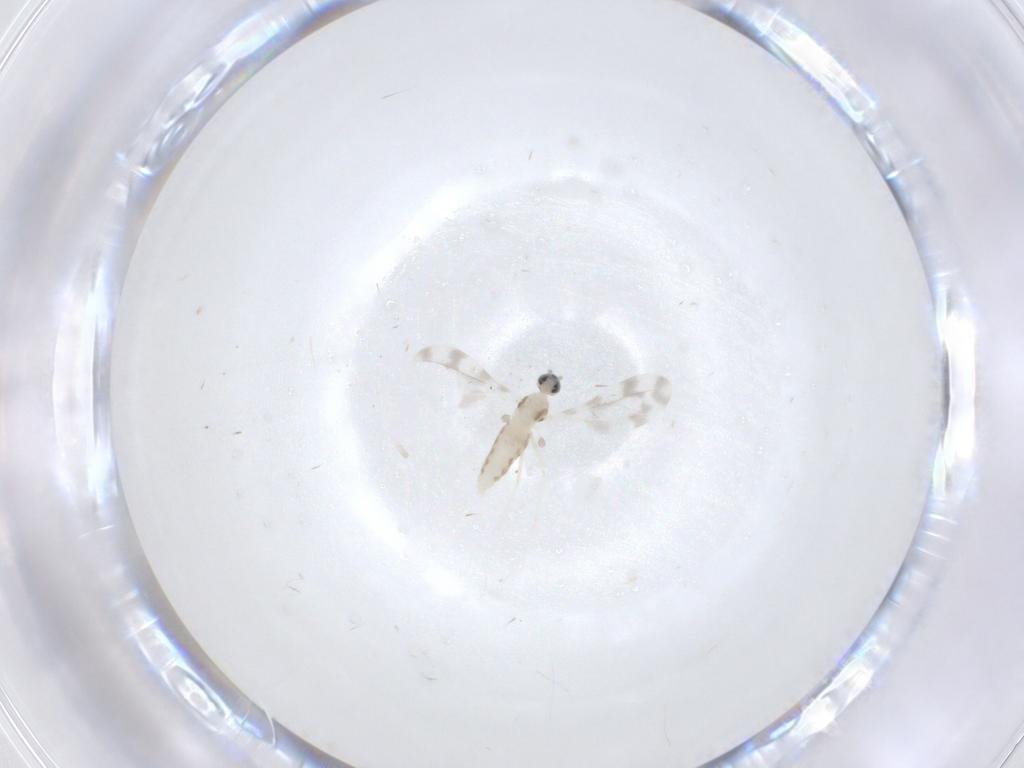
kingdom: Animalia
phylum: Arthropoda
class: Insecta
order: Diptera
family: Cecidomyiidae
